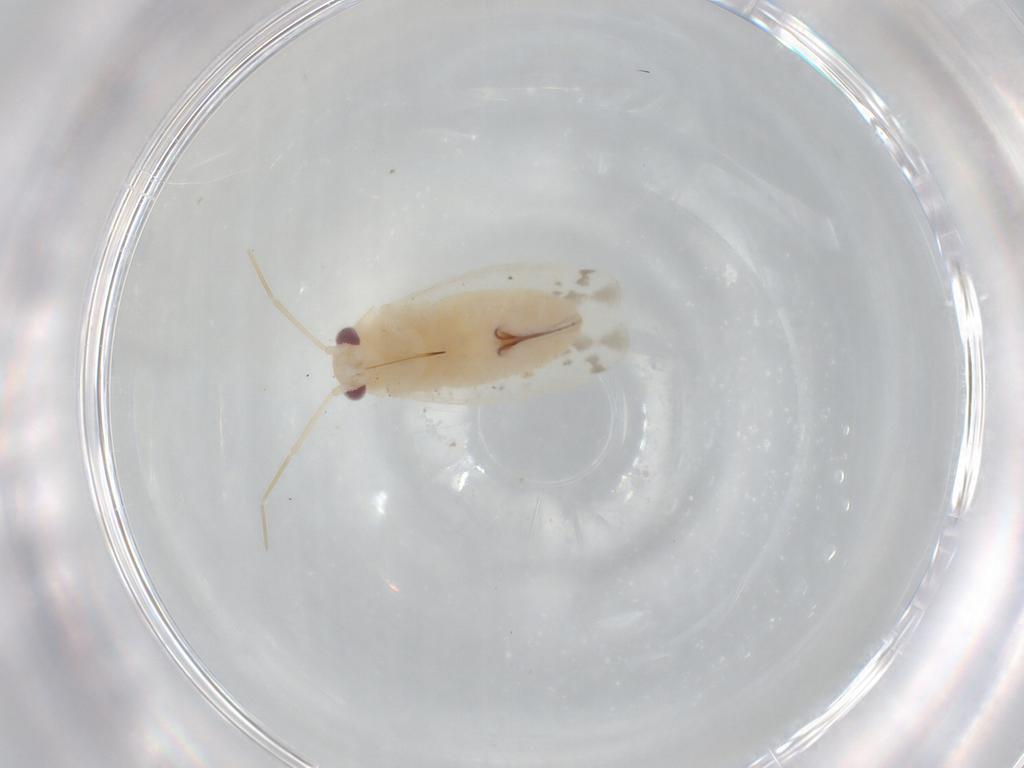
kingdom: Animalia
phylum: Arthropoda
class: Insecta
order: Hemiptera
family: Miridae
